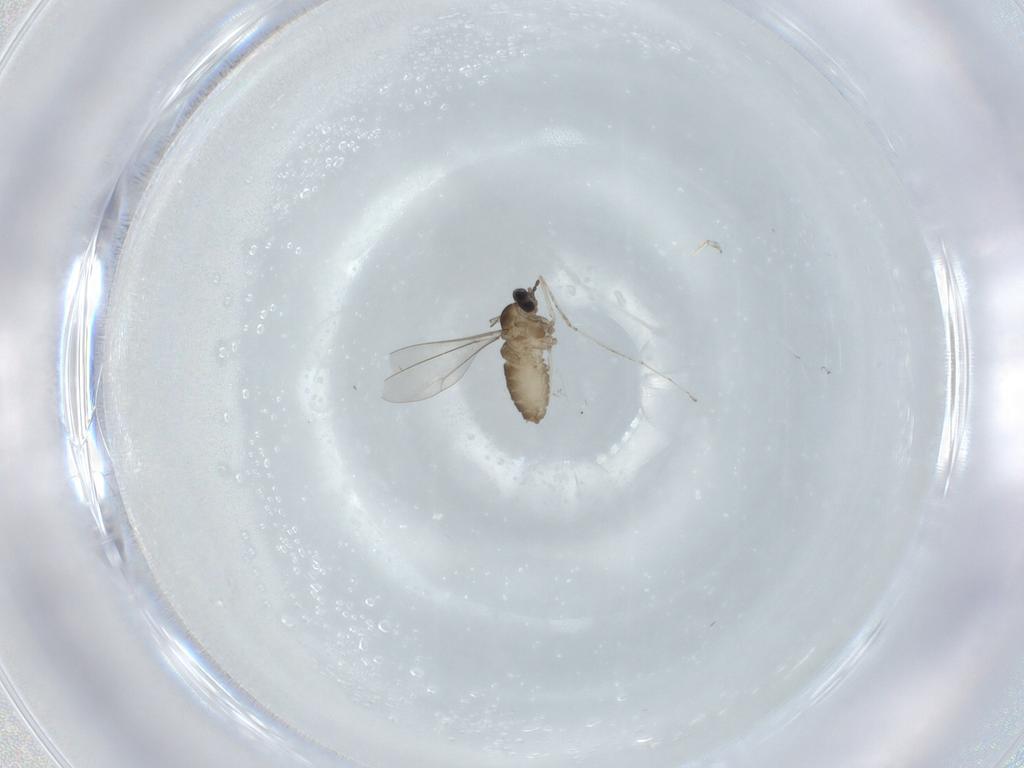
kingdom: Animalia
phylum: Arthropoda
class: Insecta
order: Diptera
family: Cecidomyiidae
